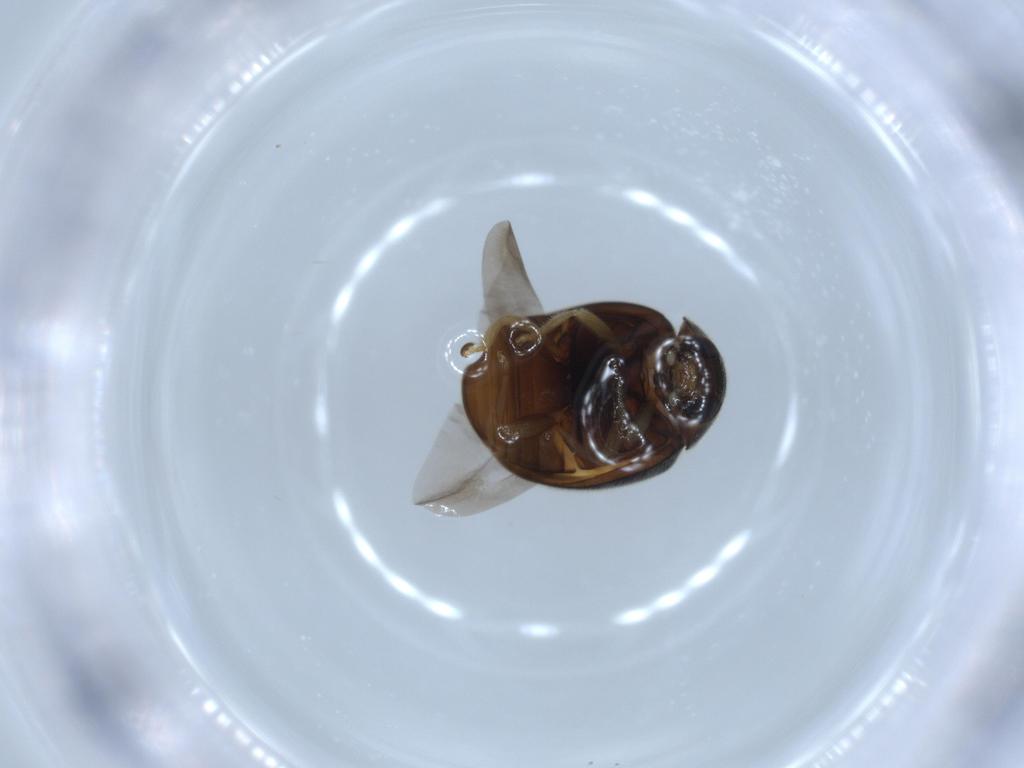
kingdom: Animalia
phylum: Arthropoda
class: Insecta
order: Coleoptera
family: Coccinellidae
